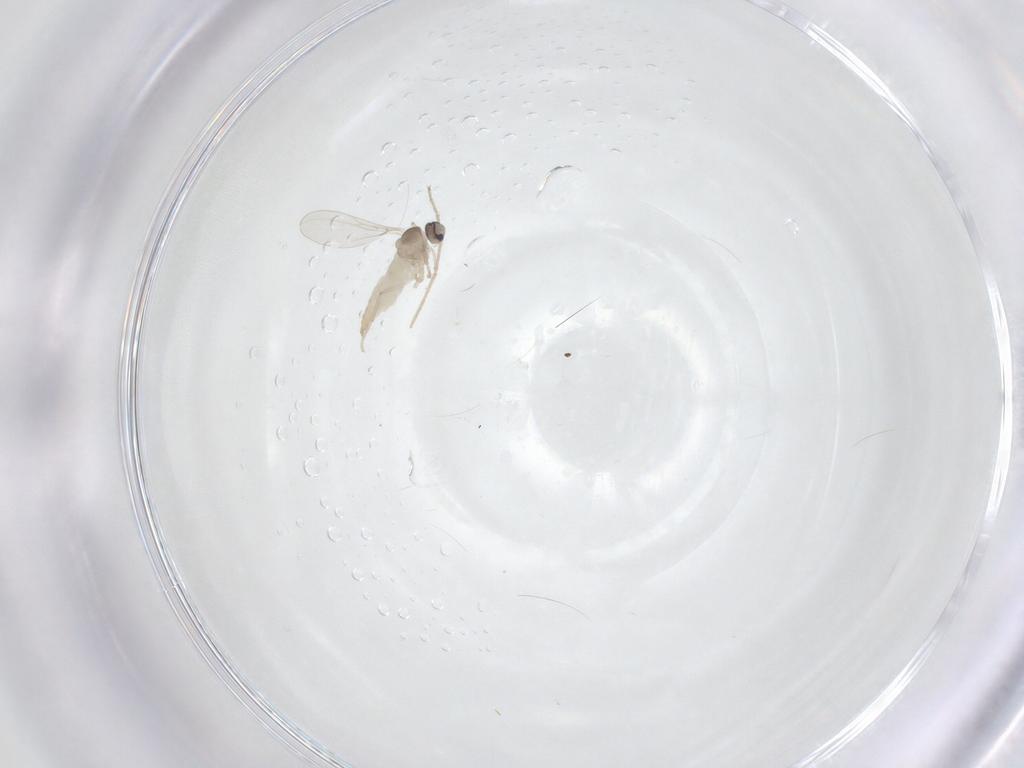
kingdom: Animalia
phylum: Arthropoda
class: Insecta
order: Diptera
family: Cecidomyiidae
